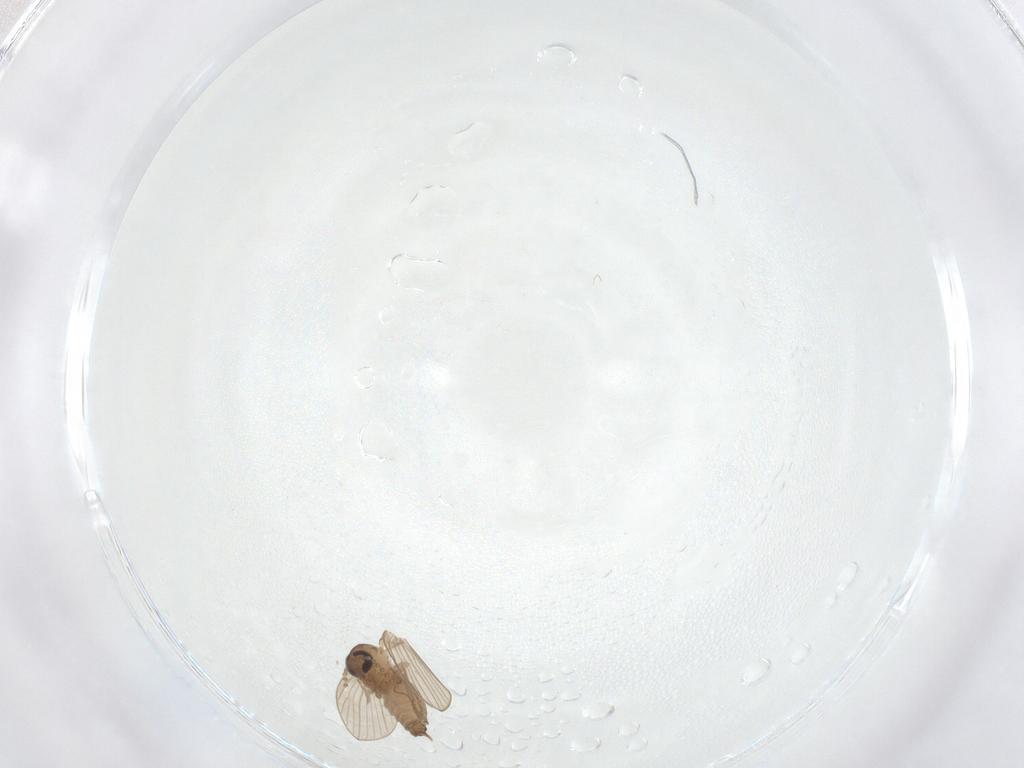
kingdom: Animalia
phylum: Arthropoda
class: Insecta
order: Diptera
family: Psychodidae
